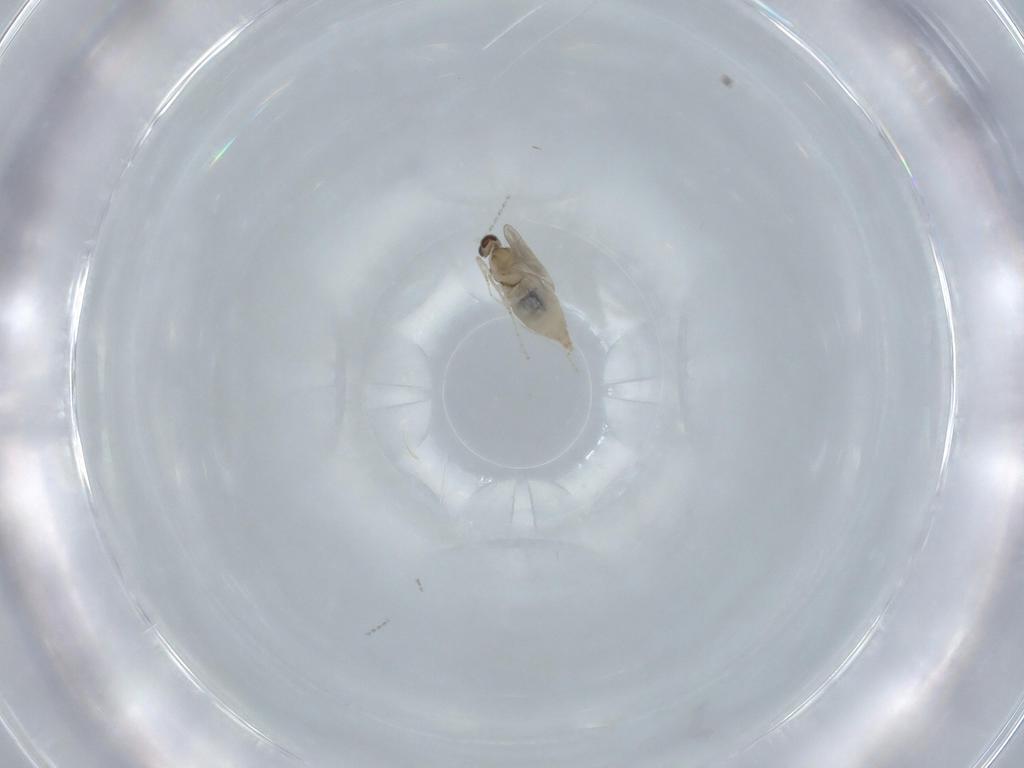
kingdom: Animalia
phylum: Arthropoda
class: Insecta
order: Diptera
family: Cecidomyiidae
